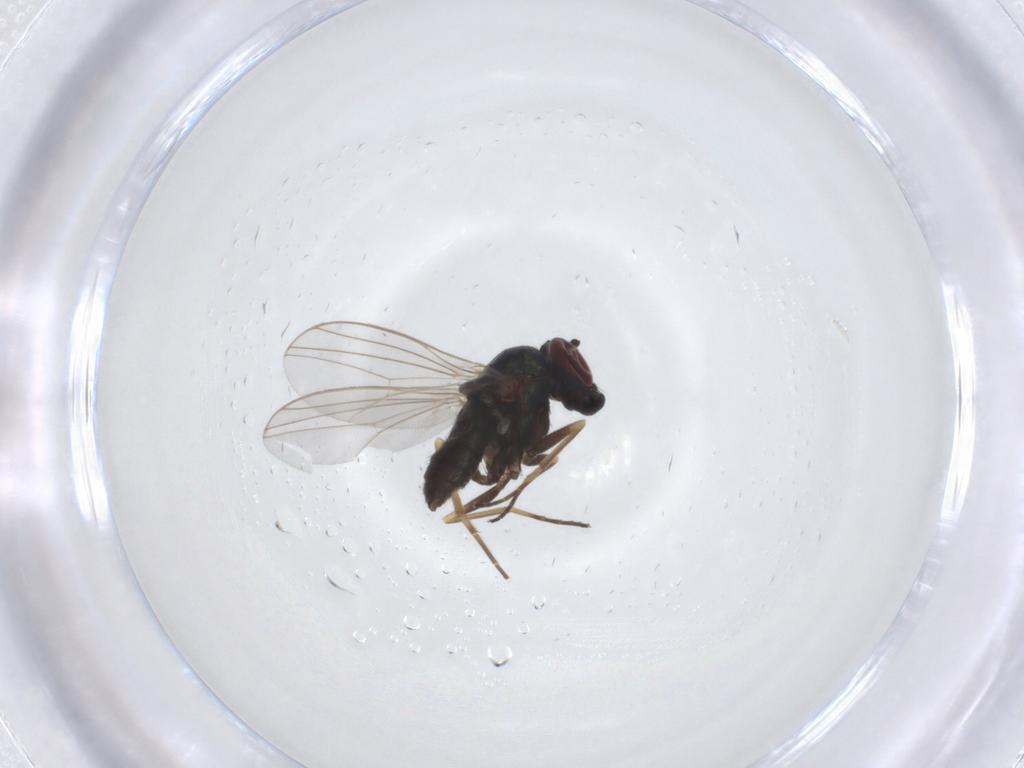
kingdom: Animalia
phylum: Arthropoda
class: Insecta
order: Diptera
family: Dolichopodidae
